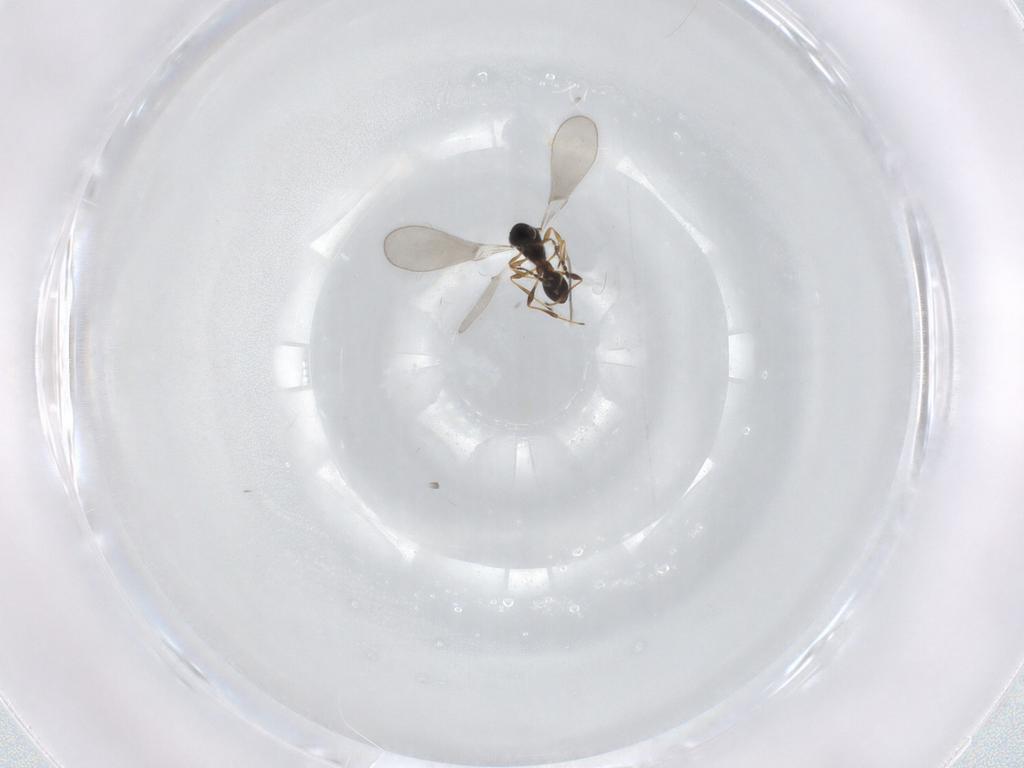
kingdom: Animalia
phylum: Arthropoda
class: Insecta
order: Hymenoptera
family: Platygastridae
